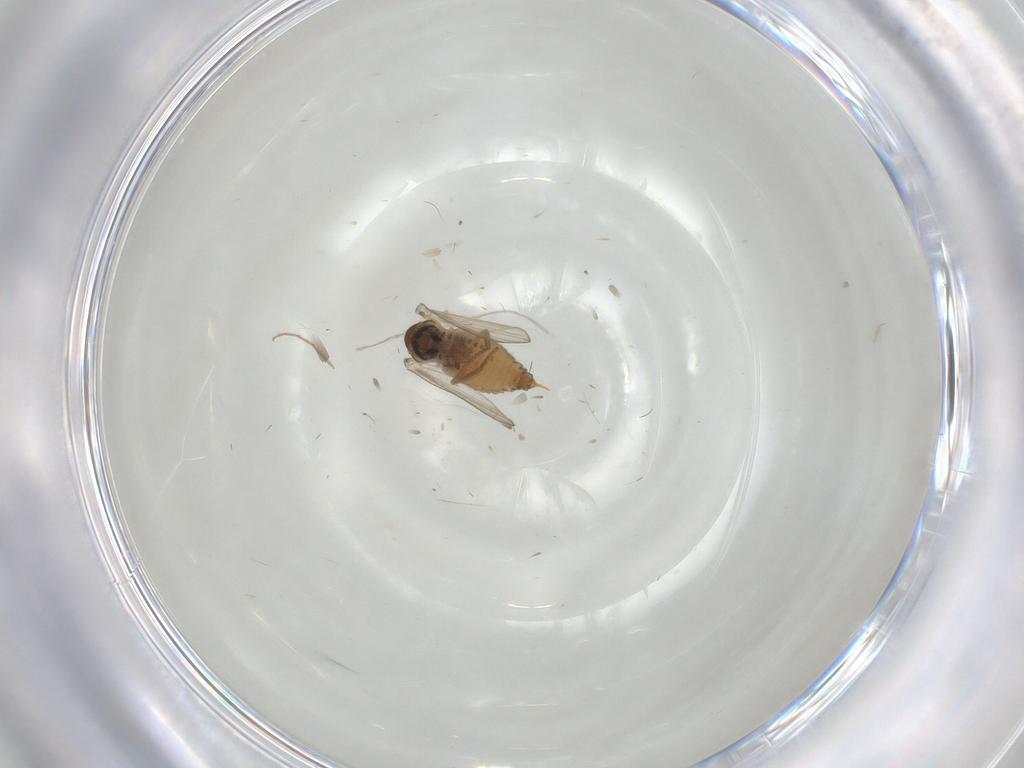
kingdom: Animalia
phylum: Arthropoda
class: Insecta
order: Diptera
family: Psychodidae
